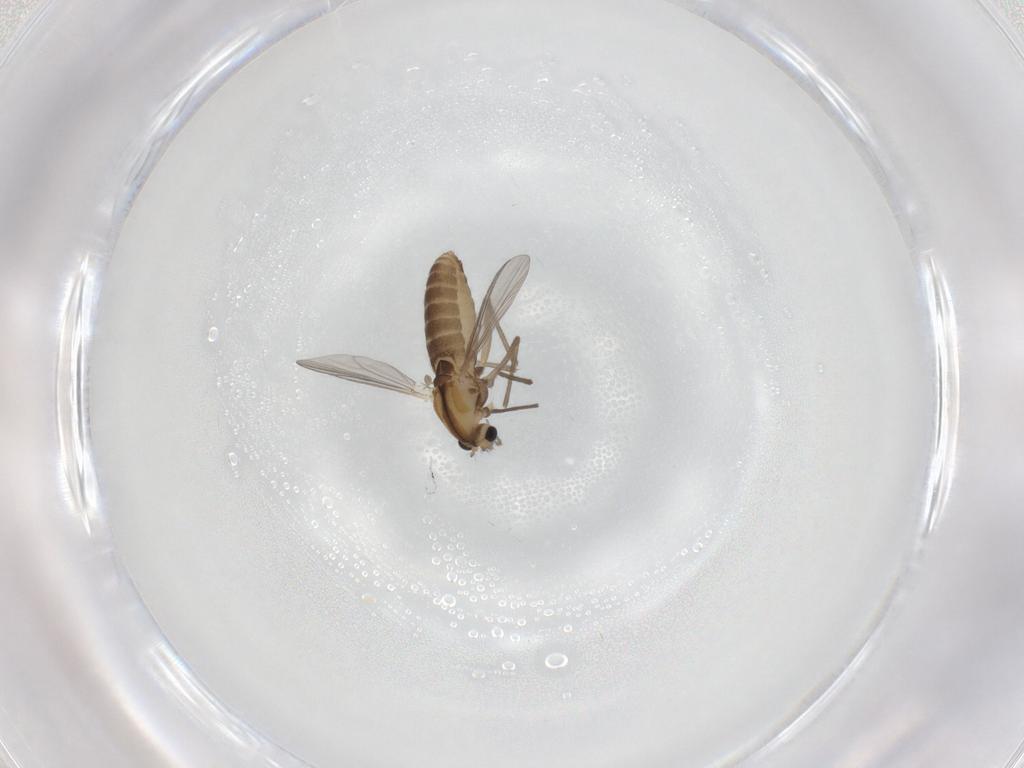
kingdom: Animalia
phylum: Arthropoda
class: Insecta
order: Diptera
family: Chironomidae
